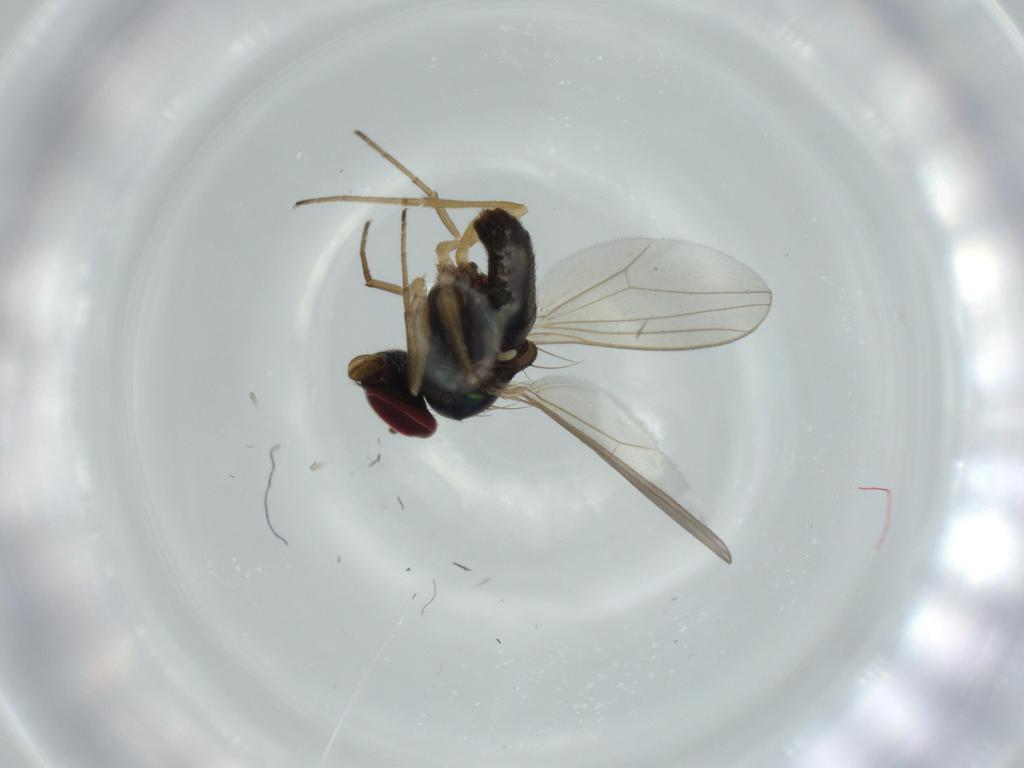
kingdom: Animalia
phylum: Arthropoda
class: Insecta
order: Diptera
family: Dolichopodidae
